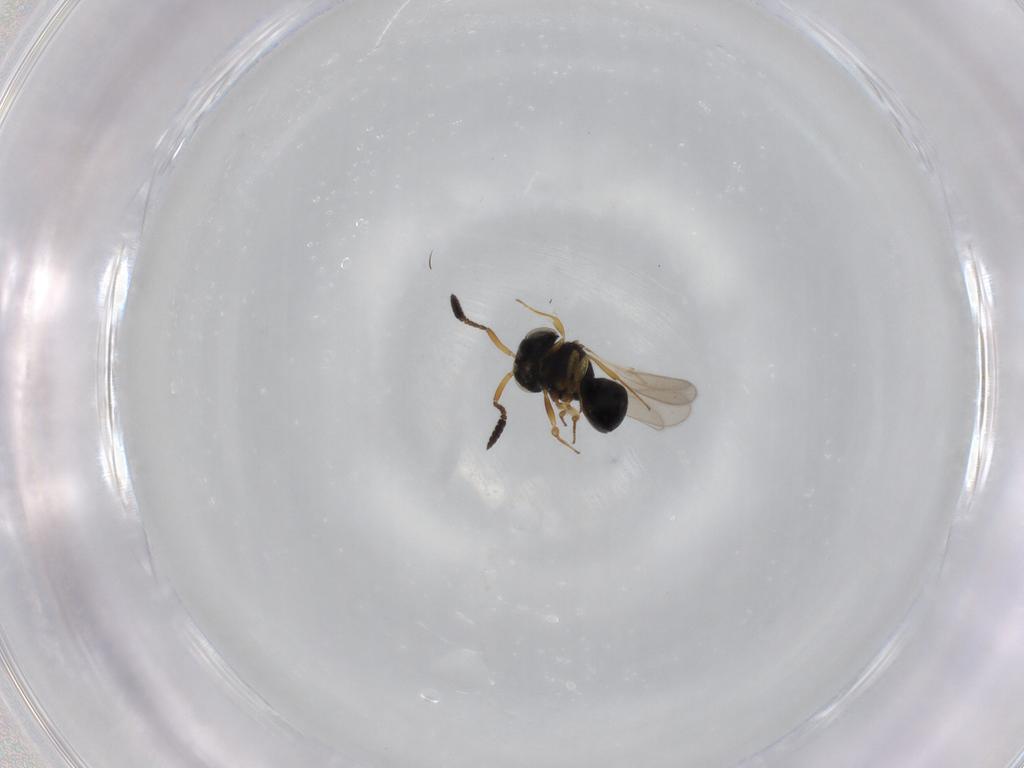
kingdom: Animalia
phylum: Arthropoda
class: Insecta
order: Hymenoptera
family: Scelionidae
